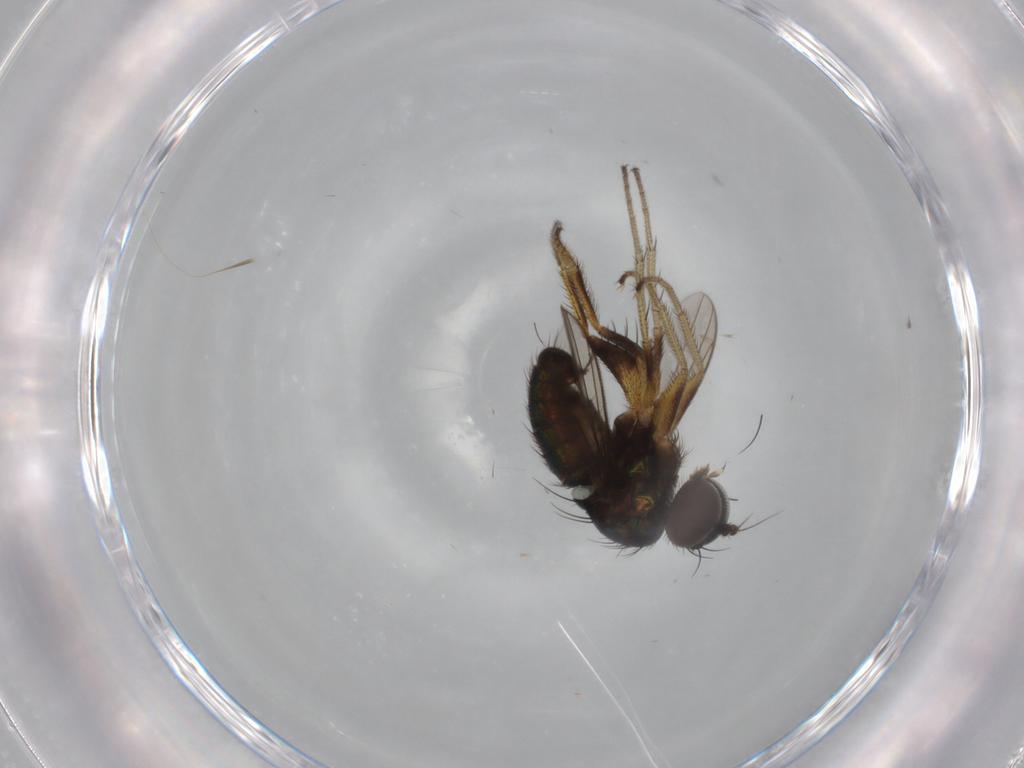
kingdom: Animalia
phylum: Arthropoda
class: Insecta
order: Diptera
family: Dolichopodidae
